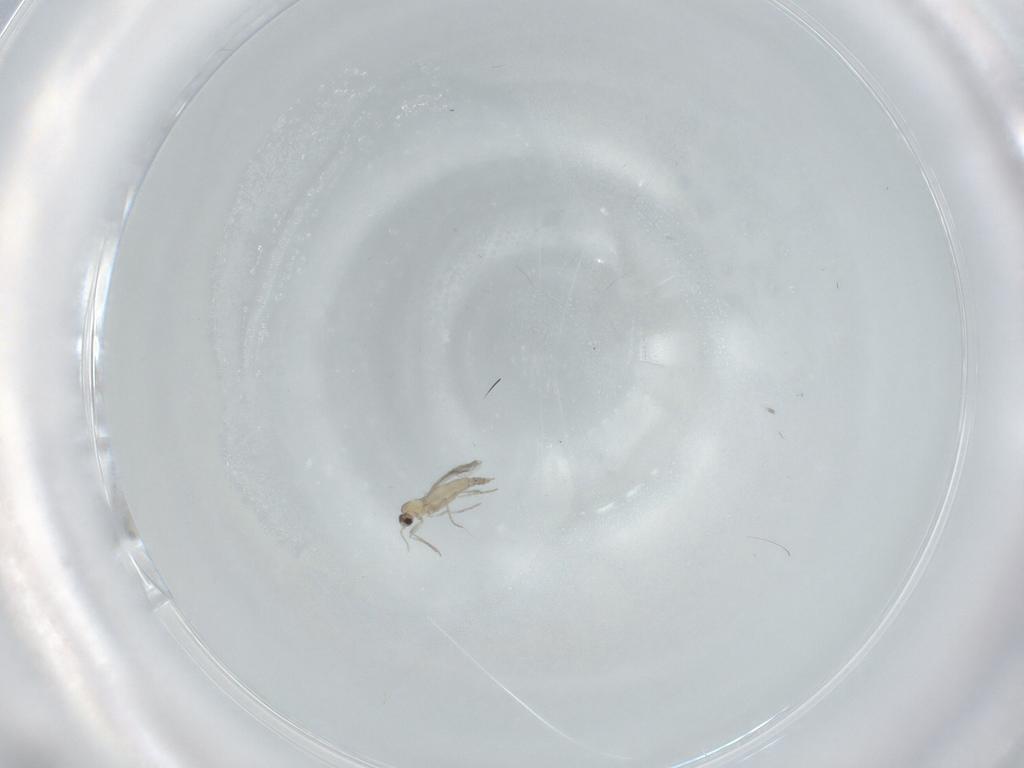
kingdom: Animalia
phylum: Arthropoda
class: Insecta
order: Diptera
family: Cecidomyiidae
